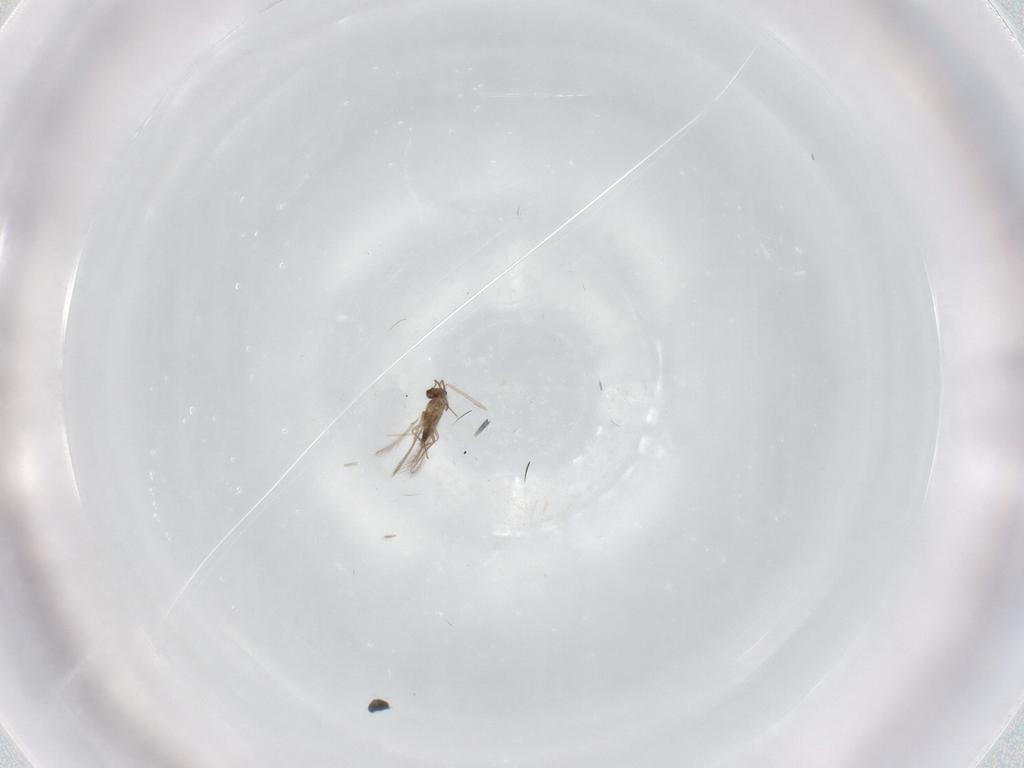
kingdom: Animalia
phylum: Arthropoda
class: Insecta
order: Hymenoptera
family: Mymaridae
